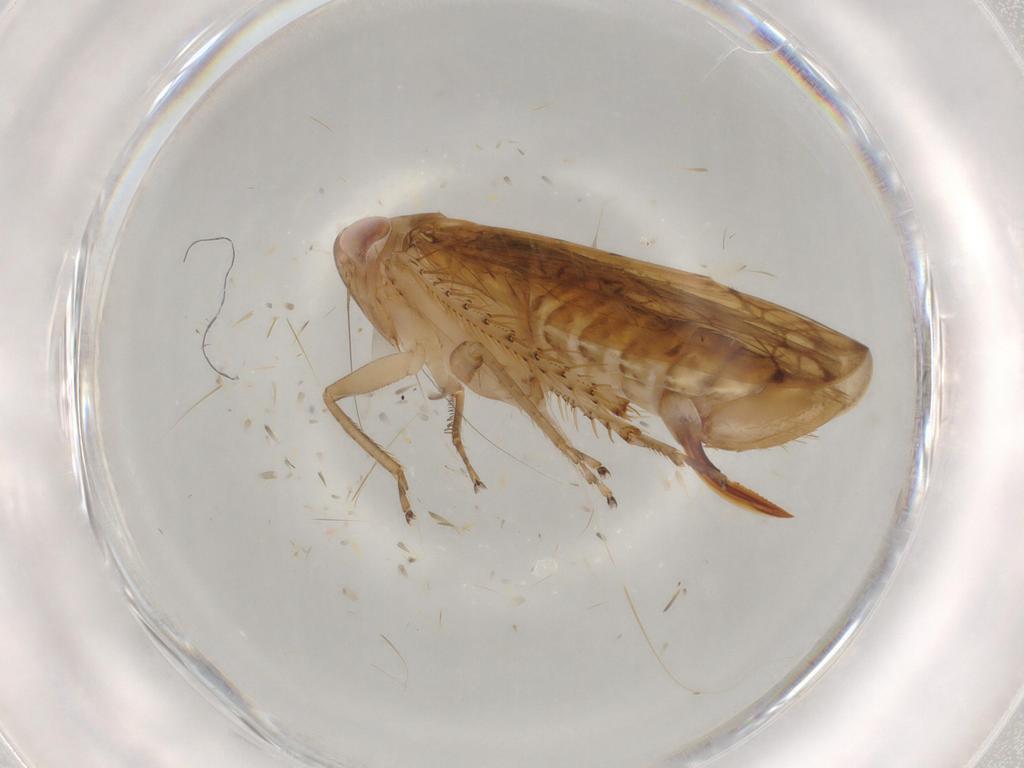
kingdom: Animalia
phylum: Arthropoda
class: Insecta
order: Hemiptera
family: Cicadellidae
